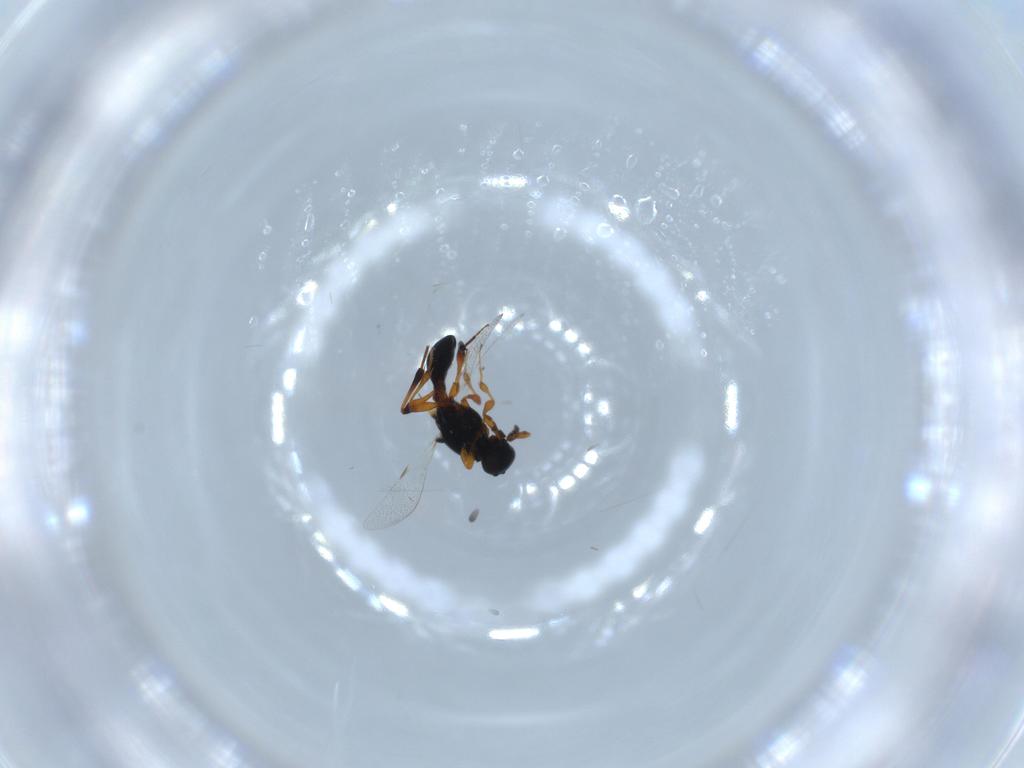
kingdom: Animalia
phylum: Arthropoda
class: Insecta
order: Hymenoptera
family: Platygastridae
